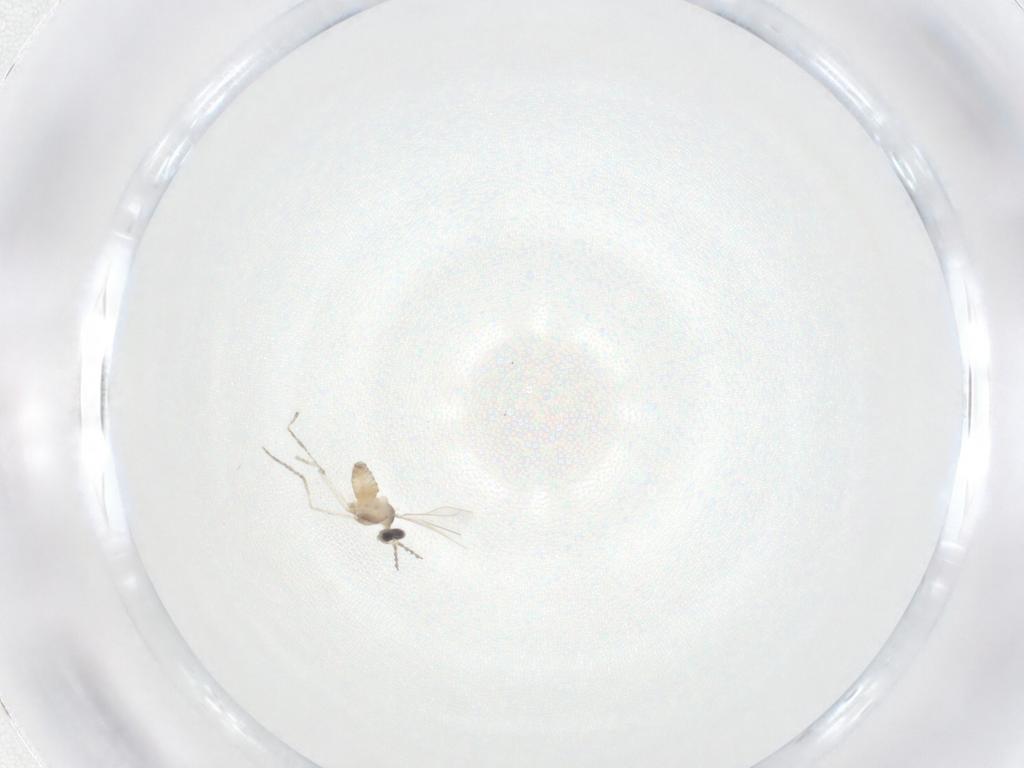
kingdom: Animalia
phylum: Arthropoda
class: Insecta
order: Diptera
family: Cecidomyiidae
